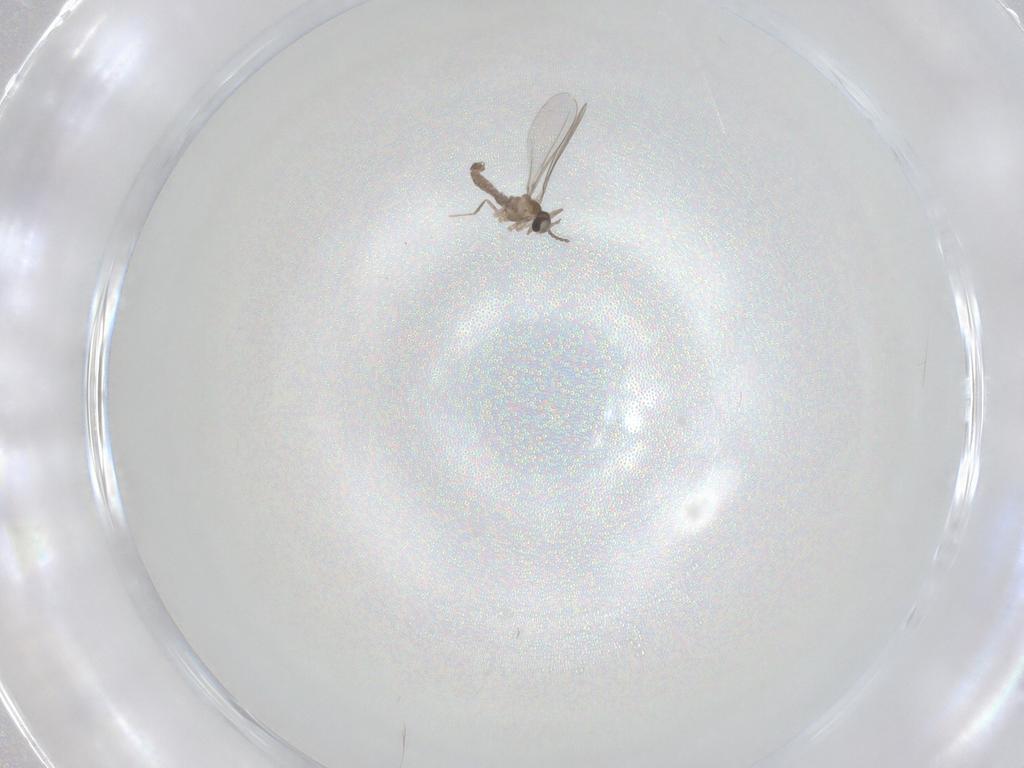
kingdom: Animalia
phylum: Arthropoda
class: Insecta
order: Diptera
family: Cecidomyiidae
